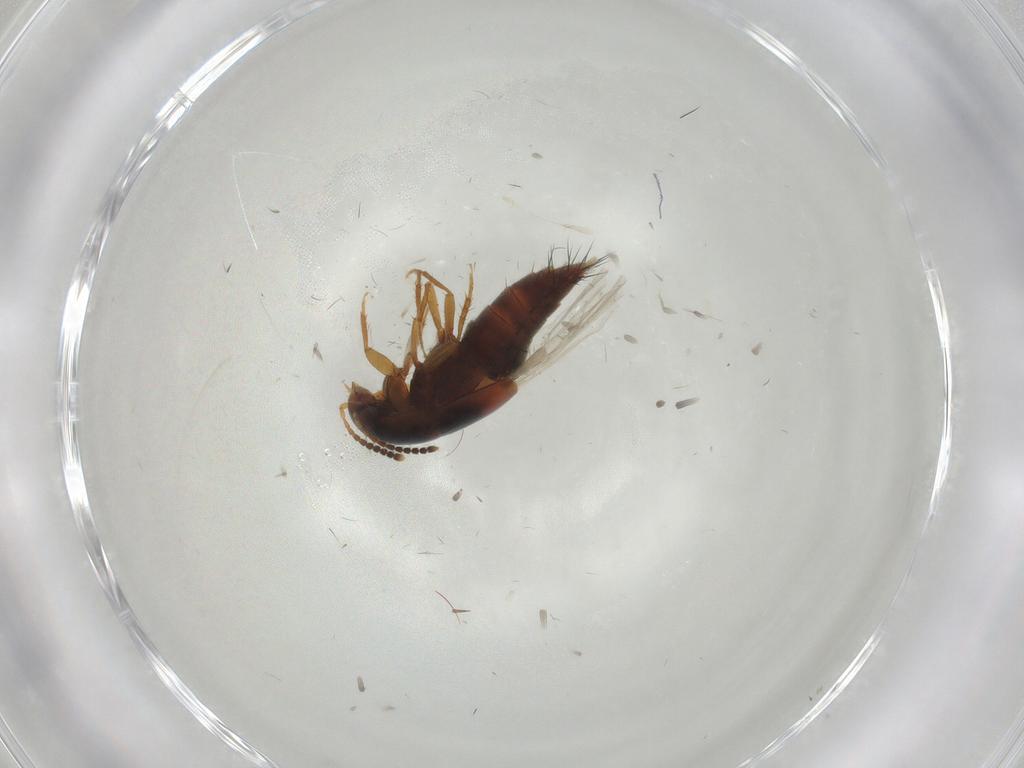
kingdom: Animalia
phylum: Arthropoda
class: Insecta
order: Coleoptera
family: Staphylinidae
